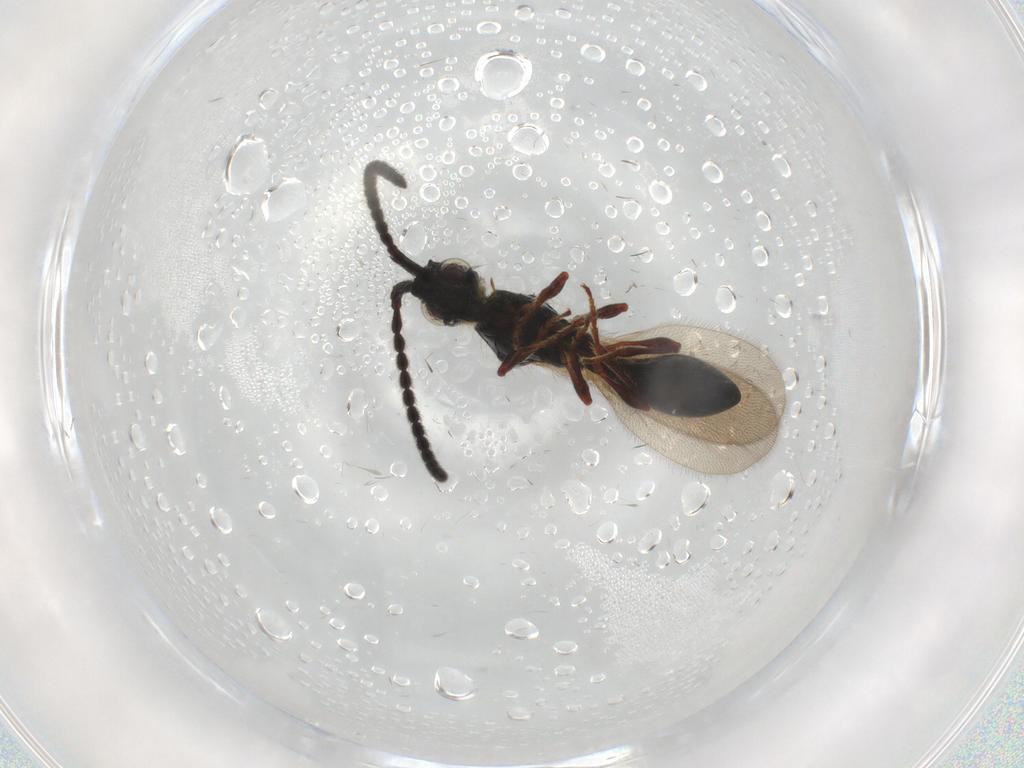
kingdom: Animalia
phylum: Arthropoda
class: Insecta
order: Hymenoptera
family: Diapriidae
